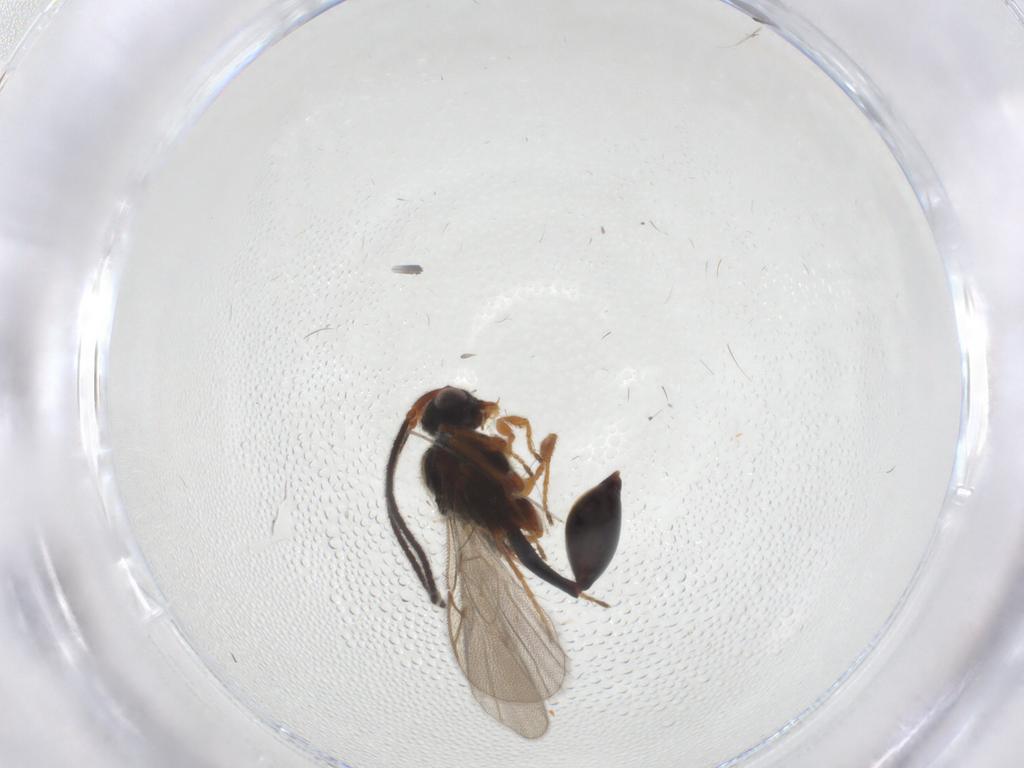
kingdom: Animalia
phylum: Arthropoda
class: Insecta
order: Hymenoptera
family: Diapriidae
